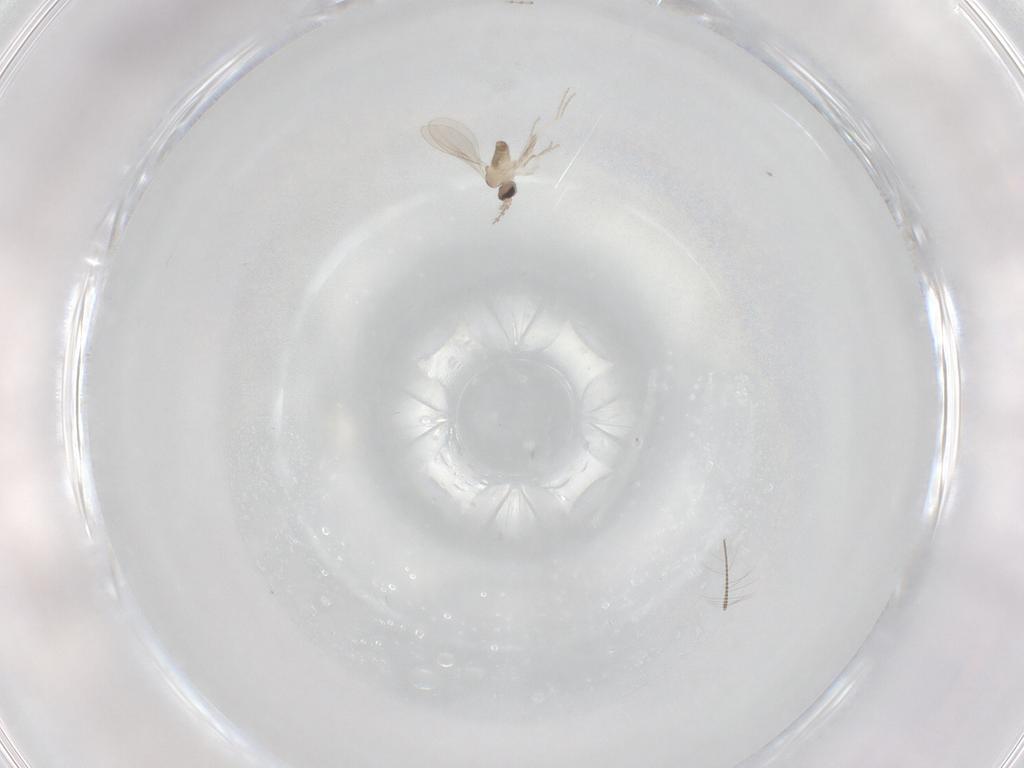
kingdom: Animalia
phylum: Arthropoda
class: Insecta
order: Diptera
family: Cecidomyiidae
